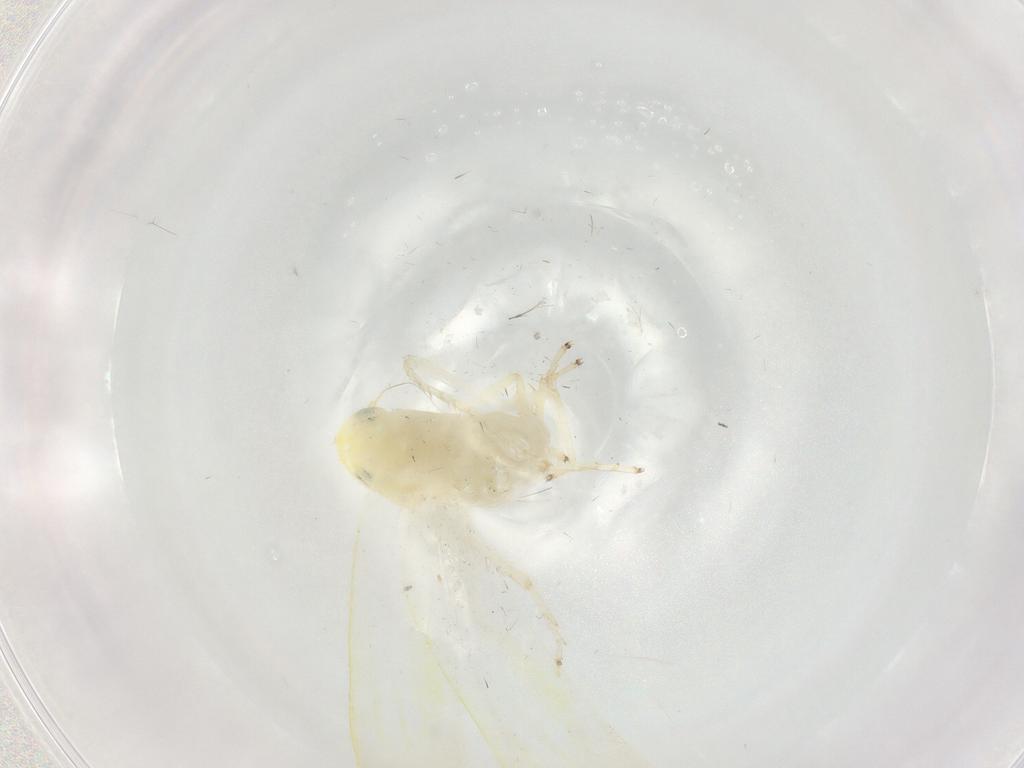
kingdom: Animalia
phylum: Arthropoda
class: Insecta
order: Hemiptera
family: Cicadellidae
